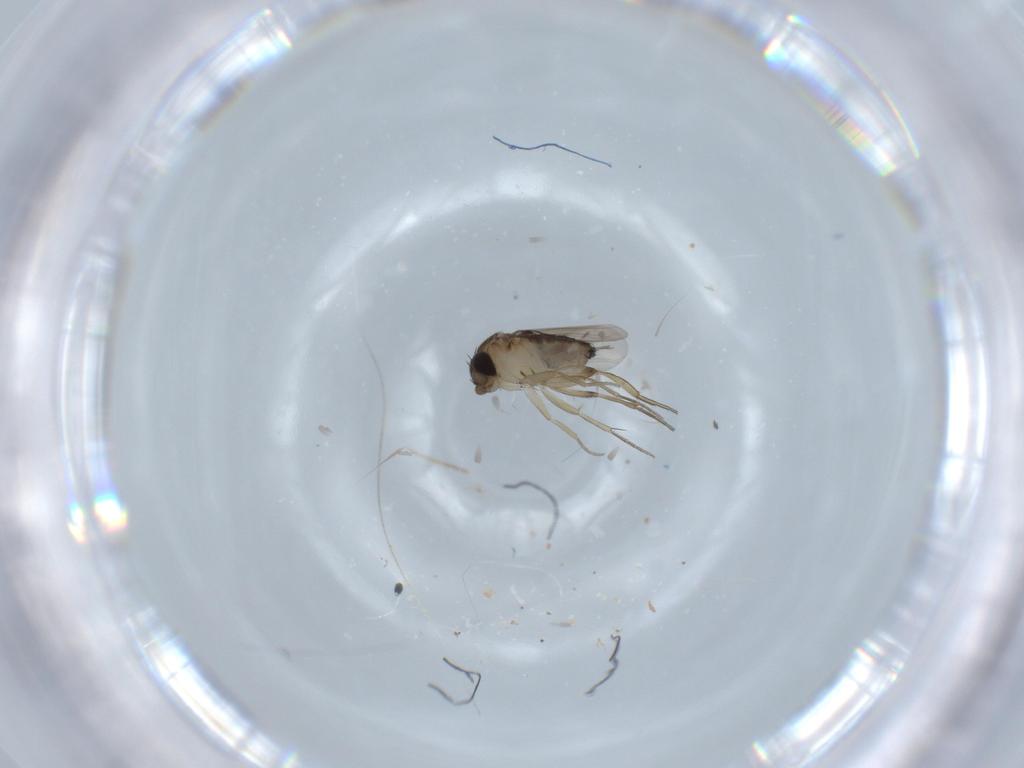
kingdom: Animalia
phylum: Arthropoda
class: Insecta
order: Diptera
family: Phoridae
